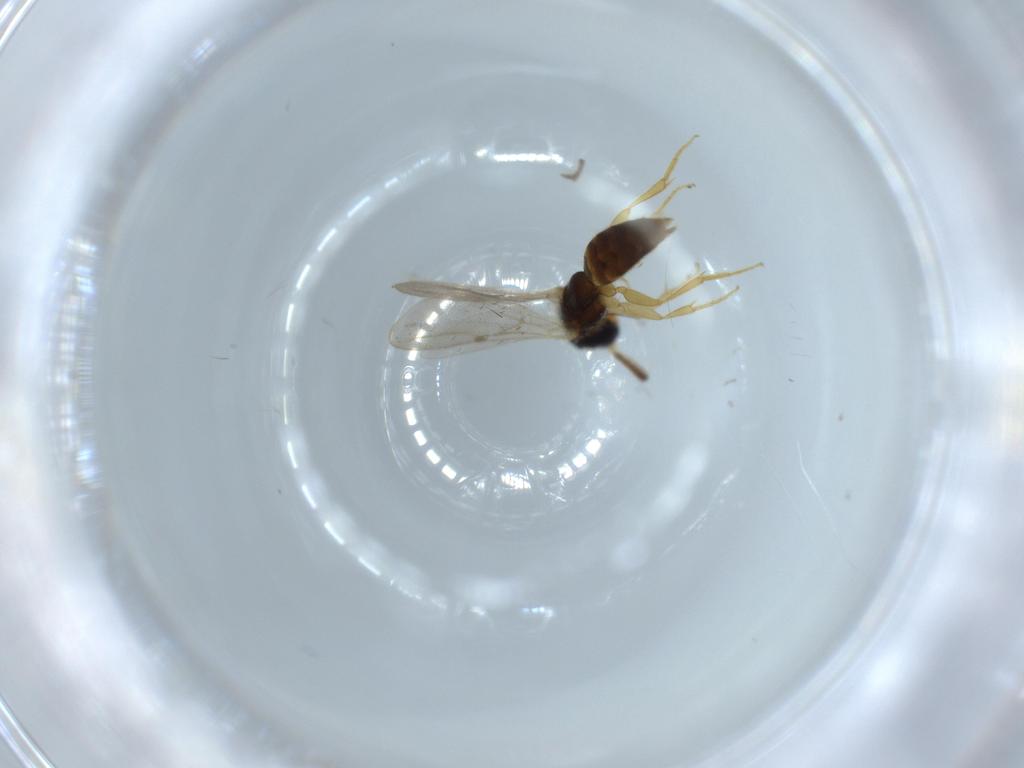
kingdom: Animalia
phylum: Arthropoda
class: Insecta
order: Hymenoptera
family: Bethylidae
